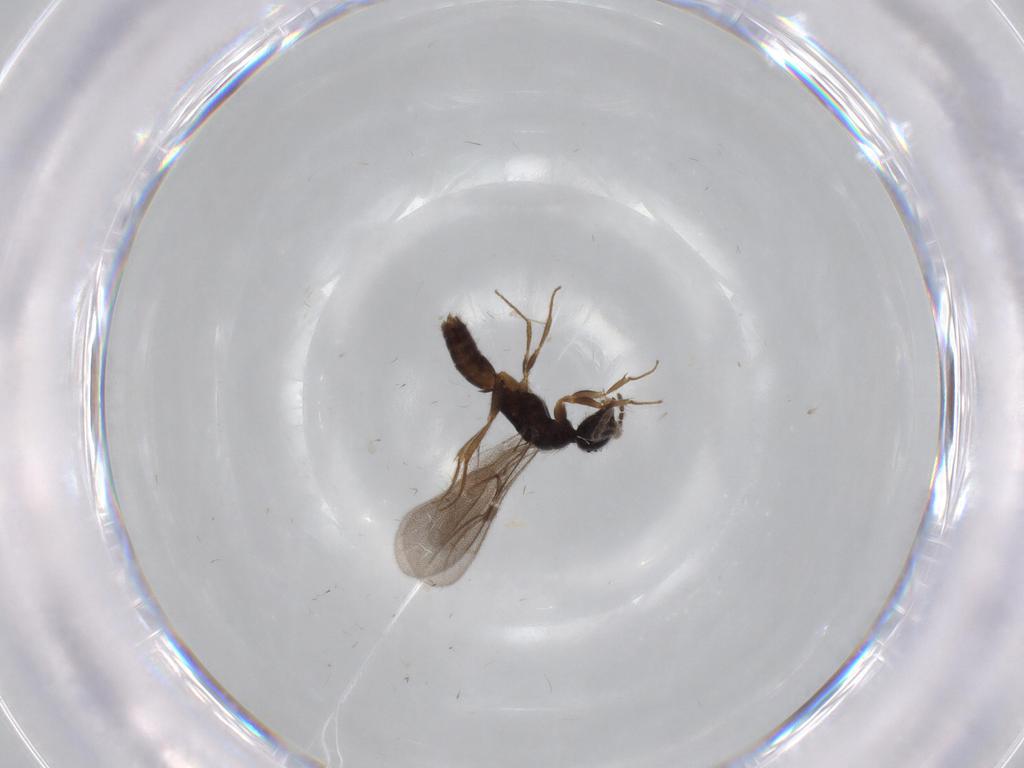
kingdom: Animalia
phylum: Arthropoda
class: Insecta
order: Hymenoptera
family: Bethylidae
